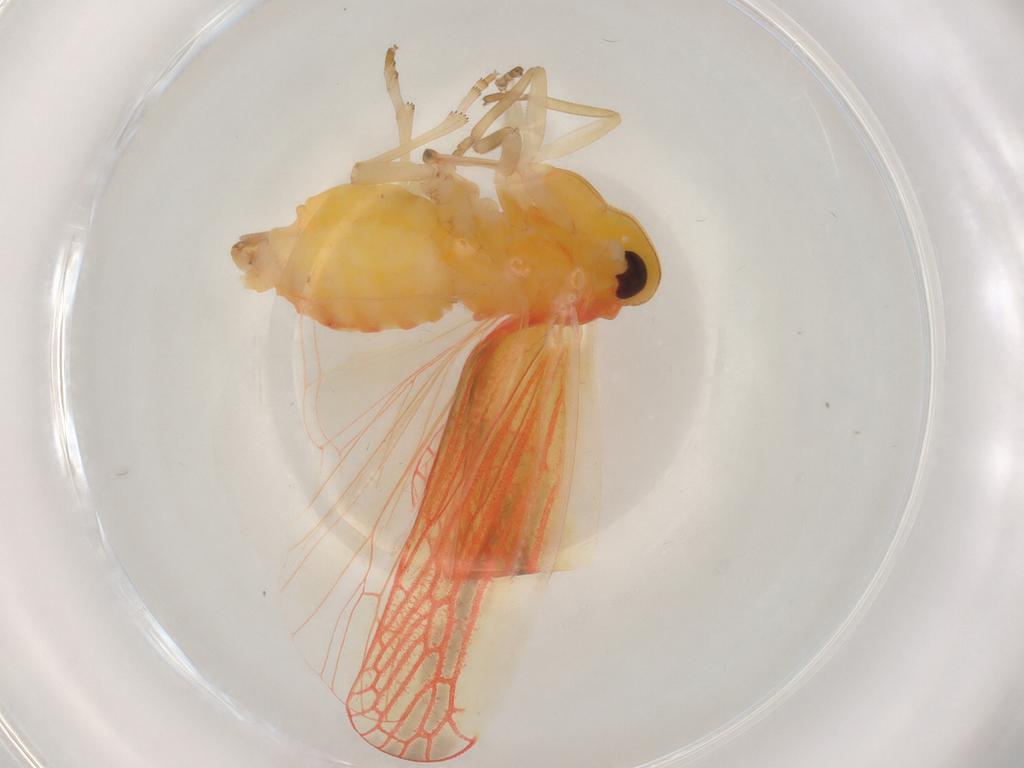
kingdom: Animalia
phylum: Arthropoda
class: Insecta
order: Hemiptera
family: Derbidae
